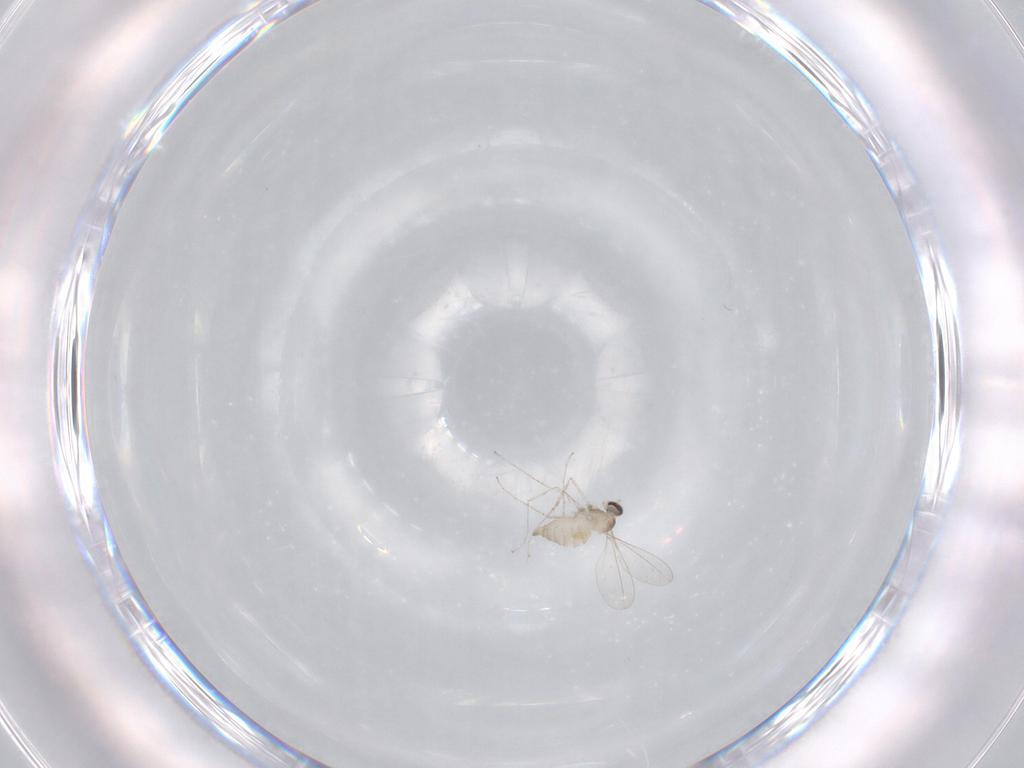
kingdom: Animalia
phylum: Arthropoda
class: Insecta
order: Diptera
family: Cecidomyiidae
